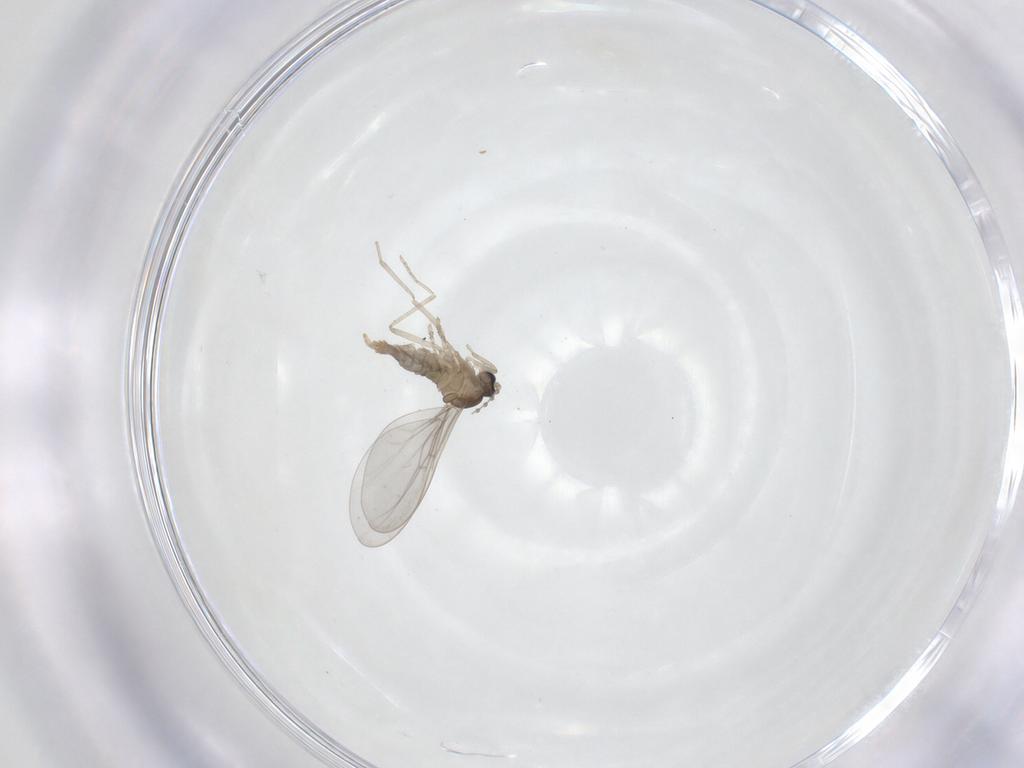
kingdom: Animalia
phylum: Arthropoda
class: Insecta
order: Diptera
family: Cecidomyiidae
